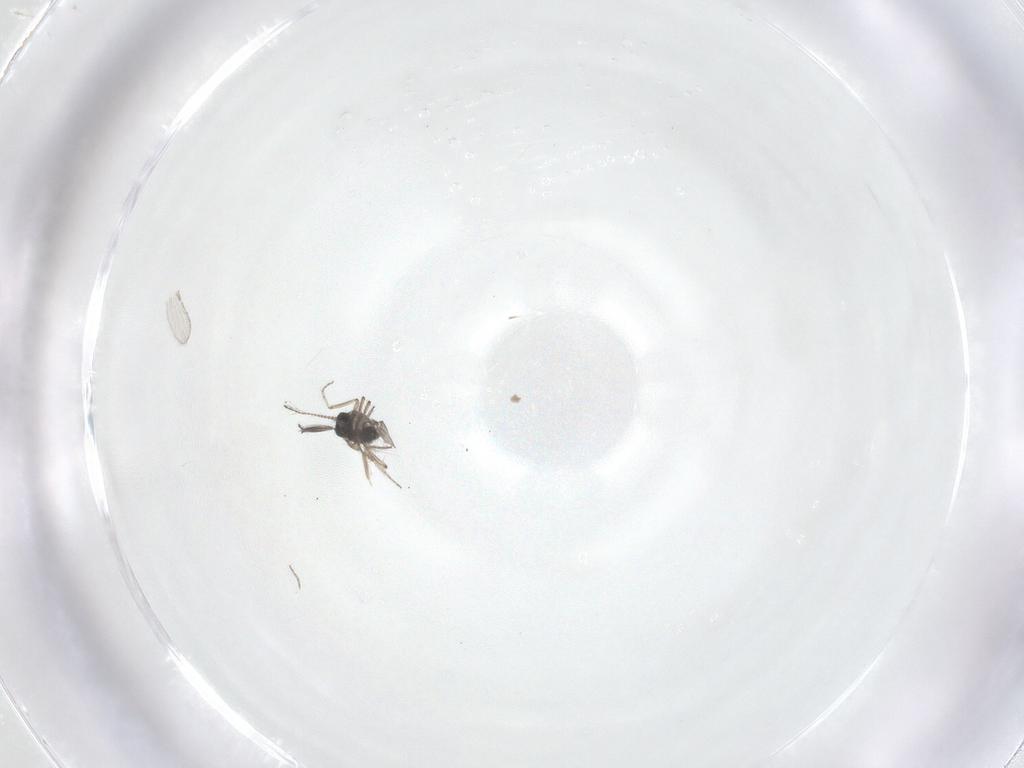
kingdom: Animalia
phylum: Arthropoda
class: Insecta
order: Diptera
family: Ceratopogonidae
